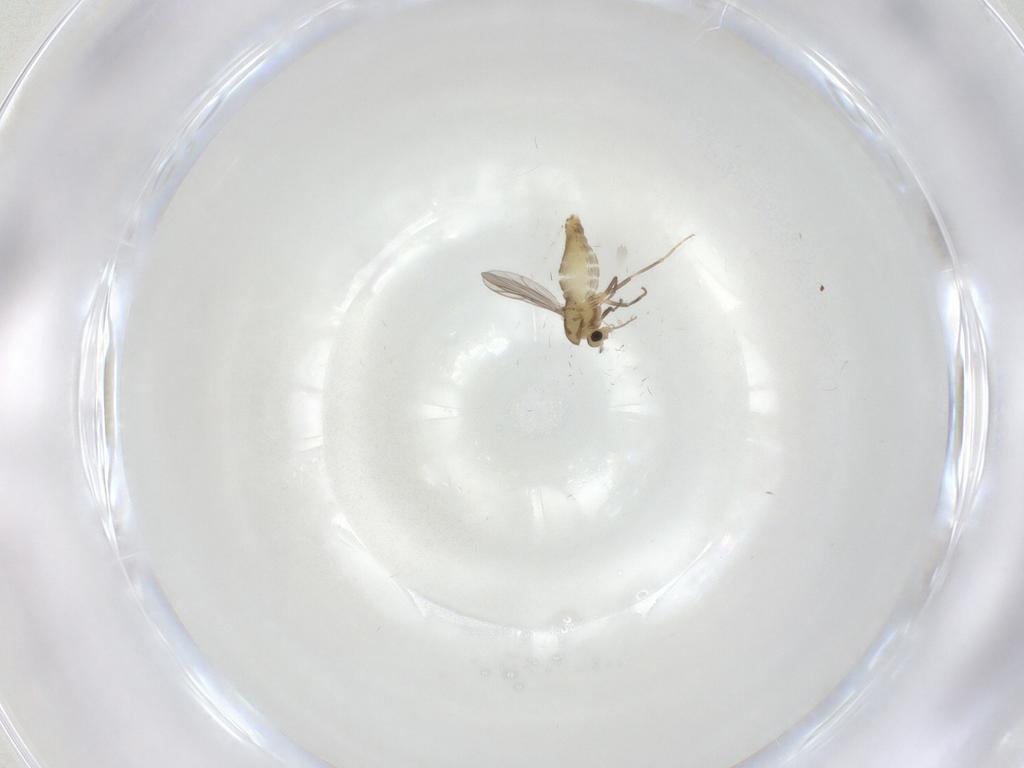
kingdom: Animalia
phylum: Arthropoda
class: Insecta
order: Diptera
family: Chironomidae
